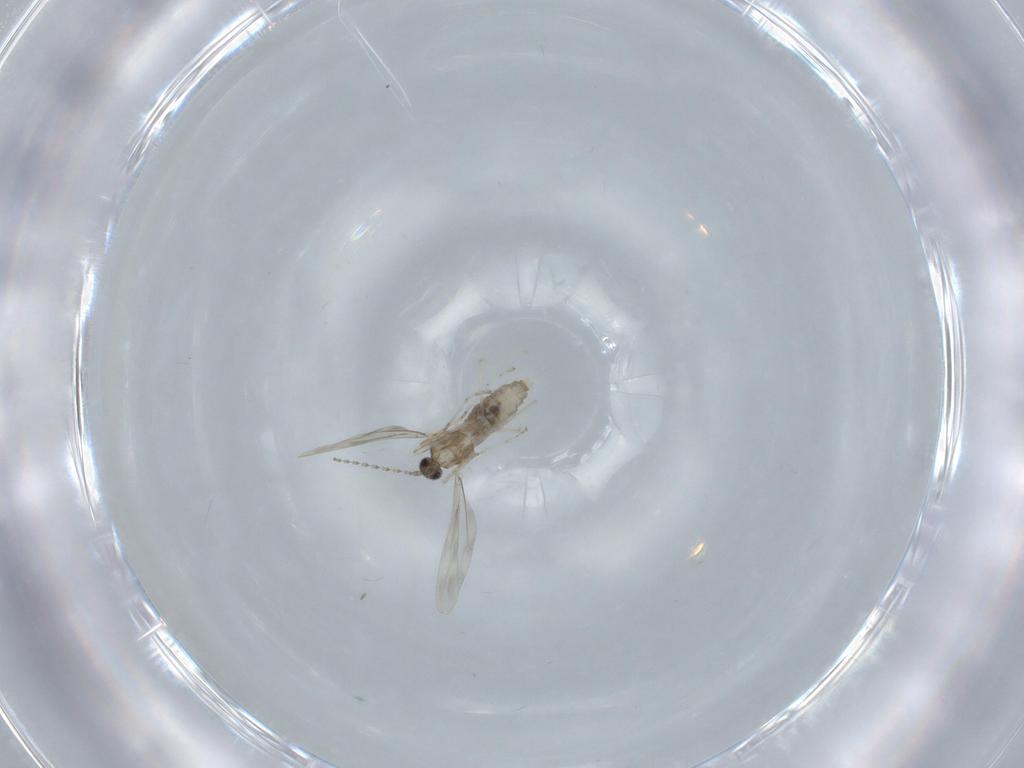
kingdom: Animalia
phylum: Arthropoda
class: Insecta
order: Diptera
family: Cecidomyiidae
